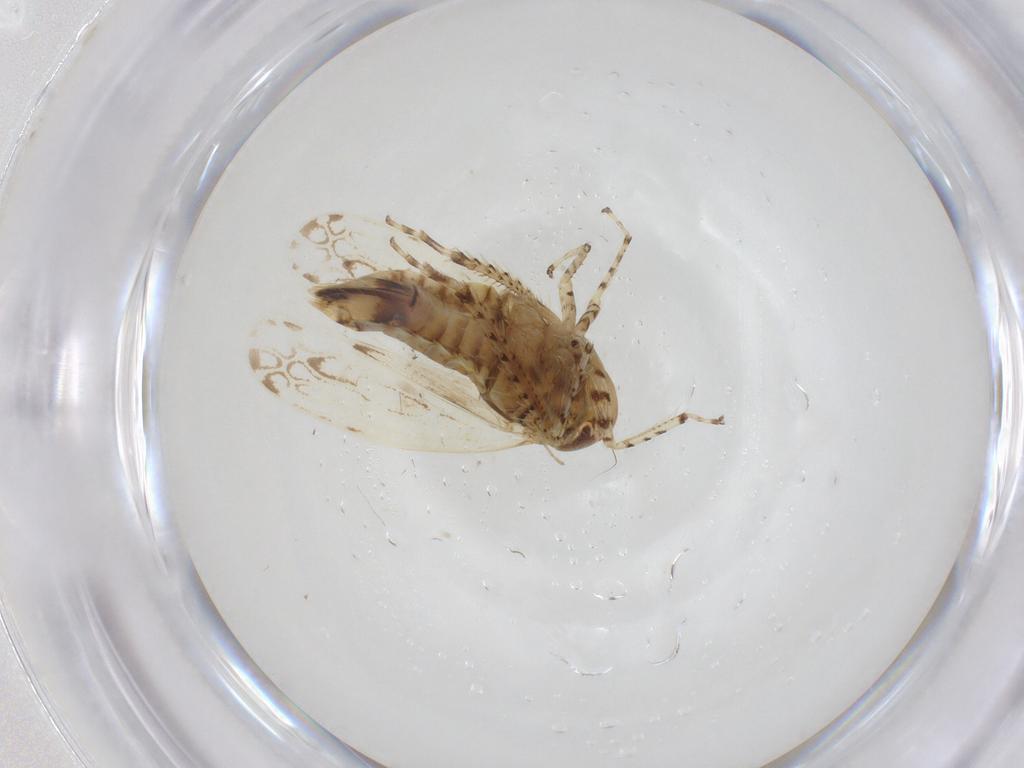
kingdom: Animalia
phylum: Arthropoda
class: Insecta
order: Hemiptera
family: Cicadellidae
